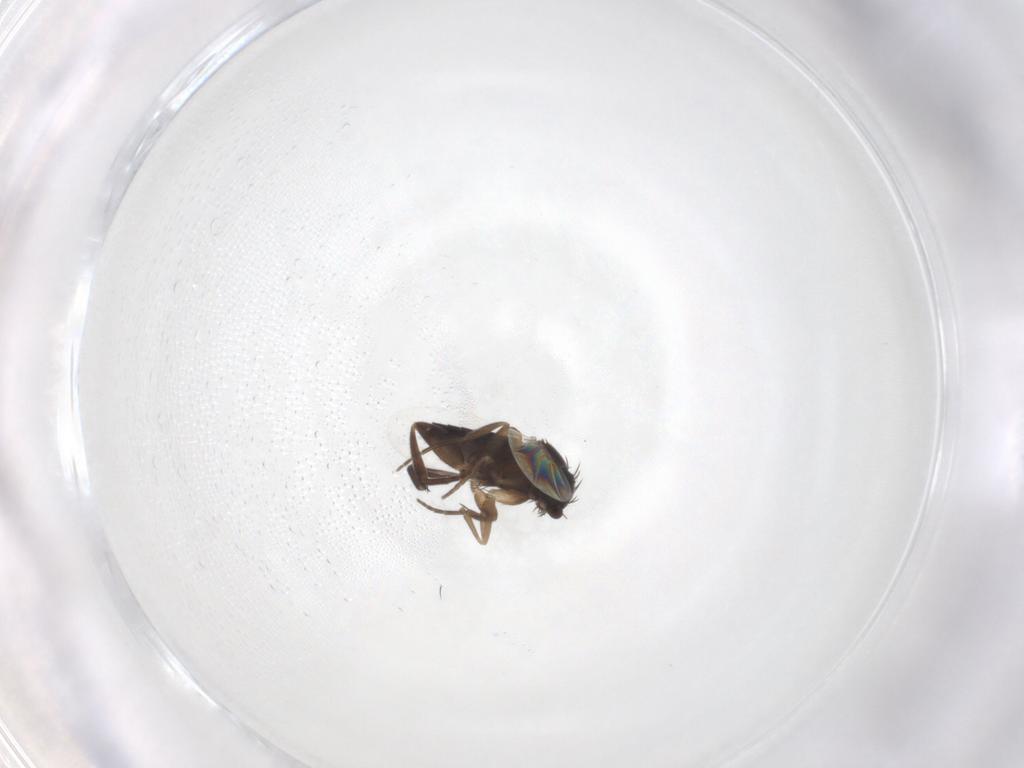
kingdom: Animalia
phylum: Arthropoda
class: Insecta
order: Diptera
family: Phoridae
